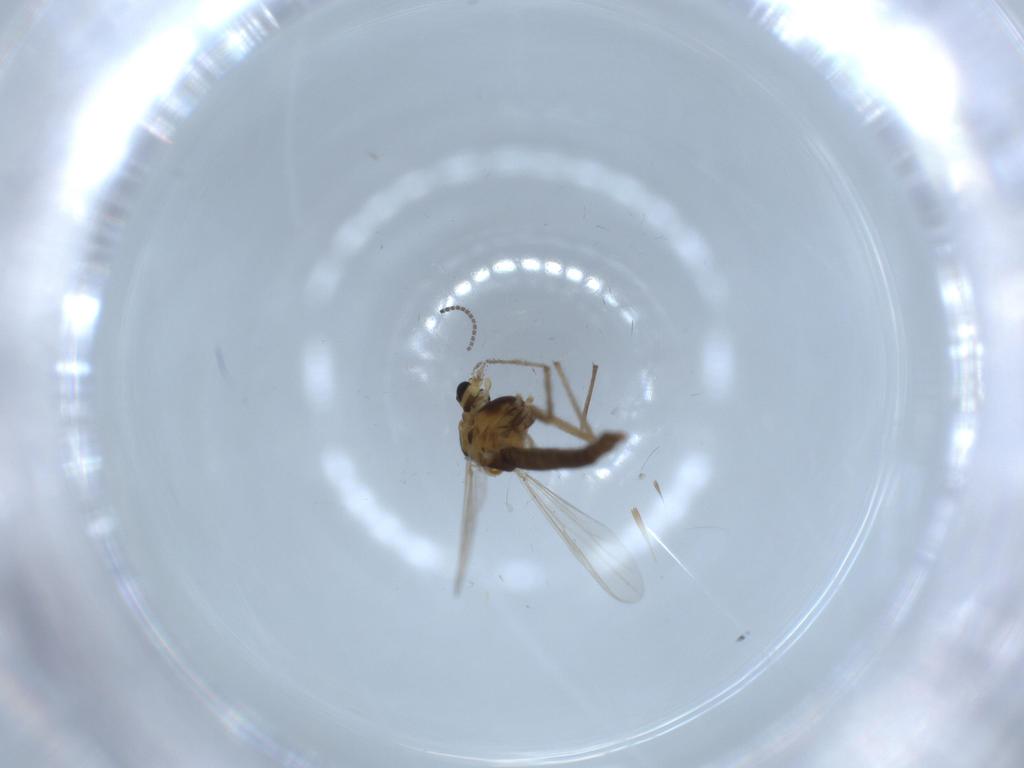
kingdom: Animalia
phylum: Arthropoda
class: Insecta
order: Diptera
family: Chironomidae
